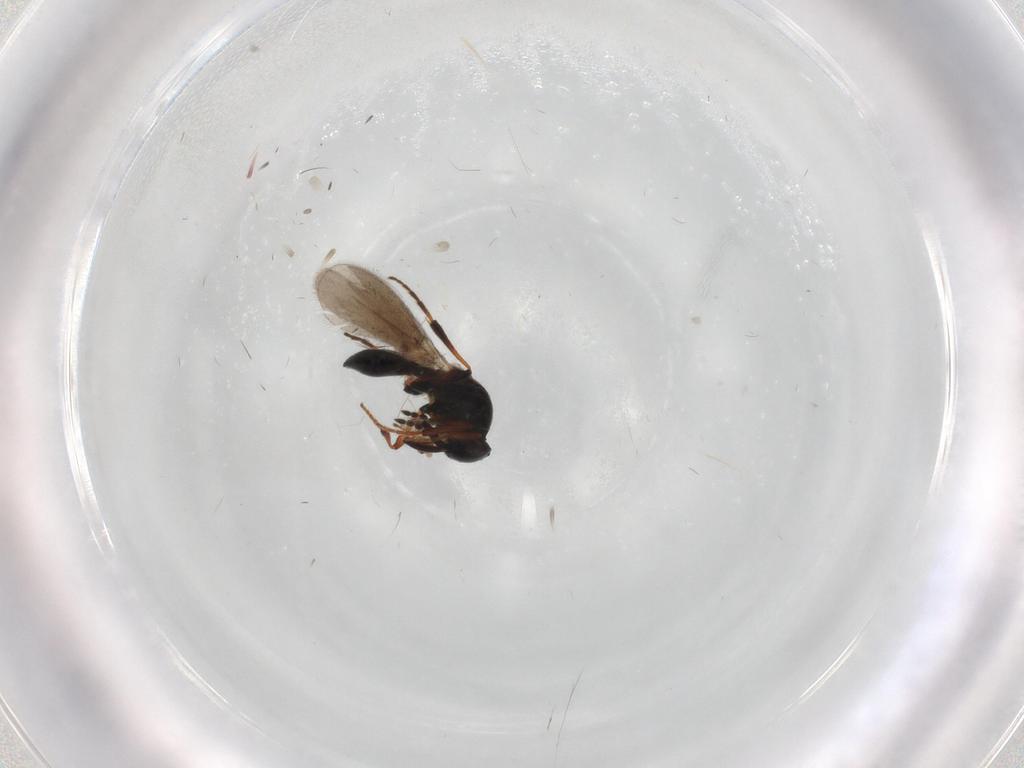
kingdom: Animalia
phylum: Arthropoda
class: Insecta
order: Hymenoptera
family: Platygastridae
